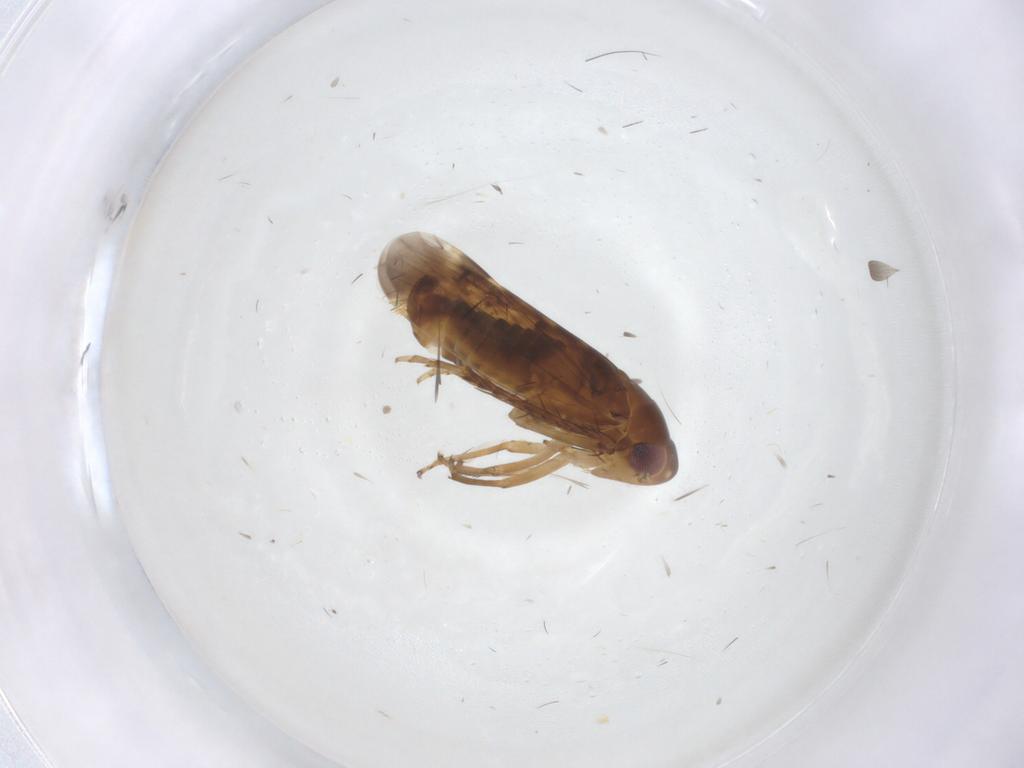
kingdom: Animalia
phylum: Arthropoda
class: Insecta
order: Hemiptera
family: Cicadellidae
